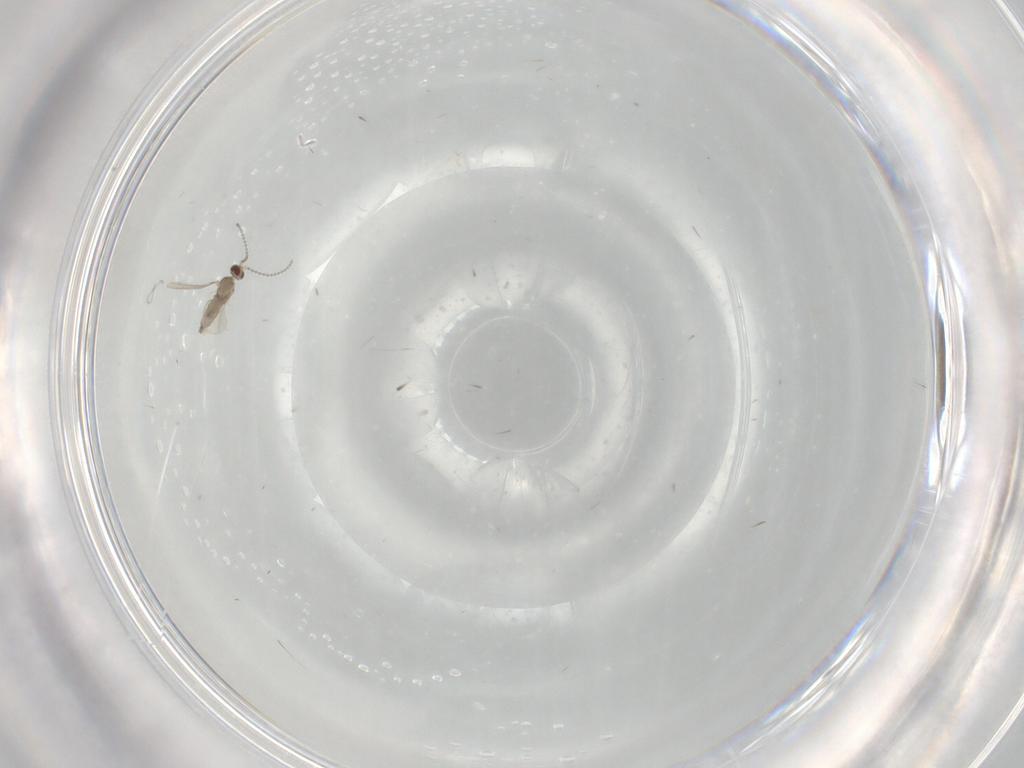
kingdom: Animalia
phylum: Arthropoda
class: Insecta
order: Diptera
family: Cecidomyiidae
